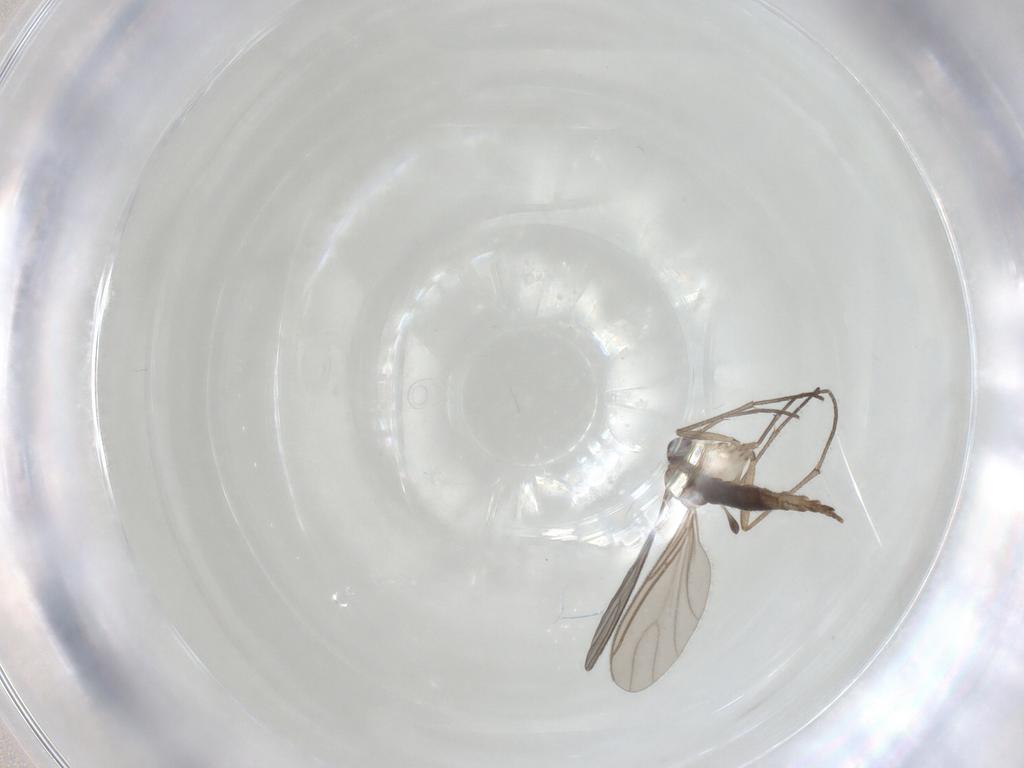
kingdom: Animalia
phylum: Arthropoda
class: Insecta
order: Diptera
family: Sciaridae
